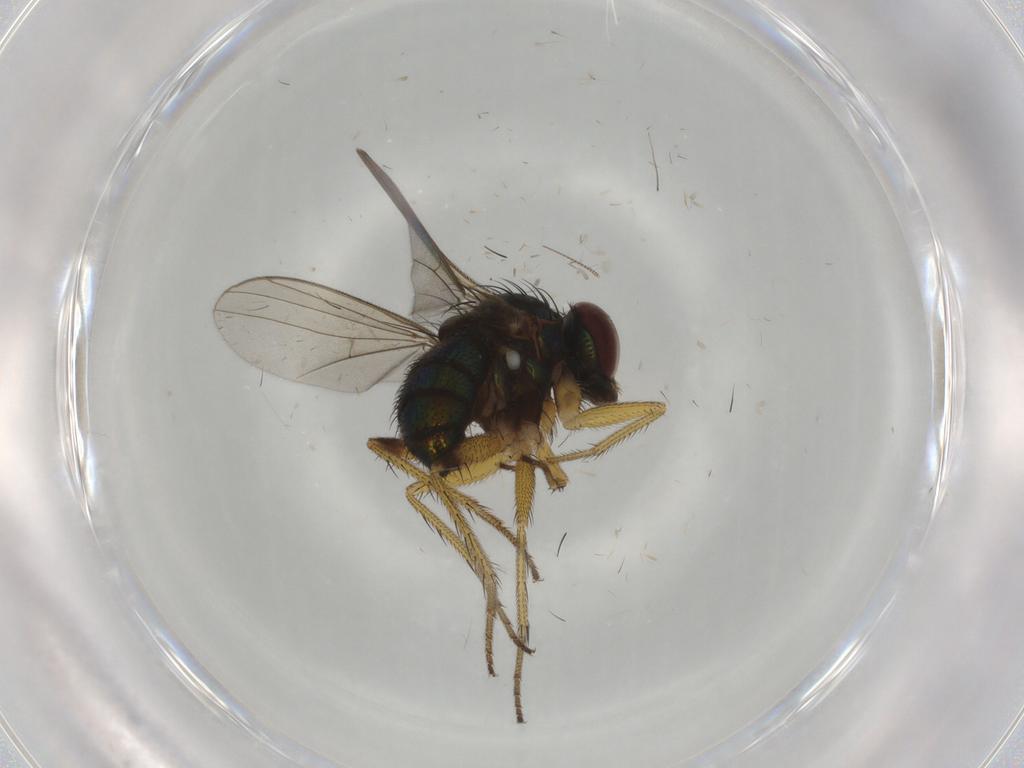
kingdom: Animalia
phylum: Arthropoda
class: Insecta
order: Diptera
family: Dolichopodidae
